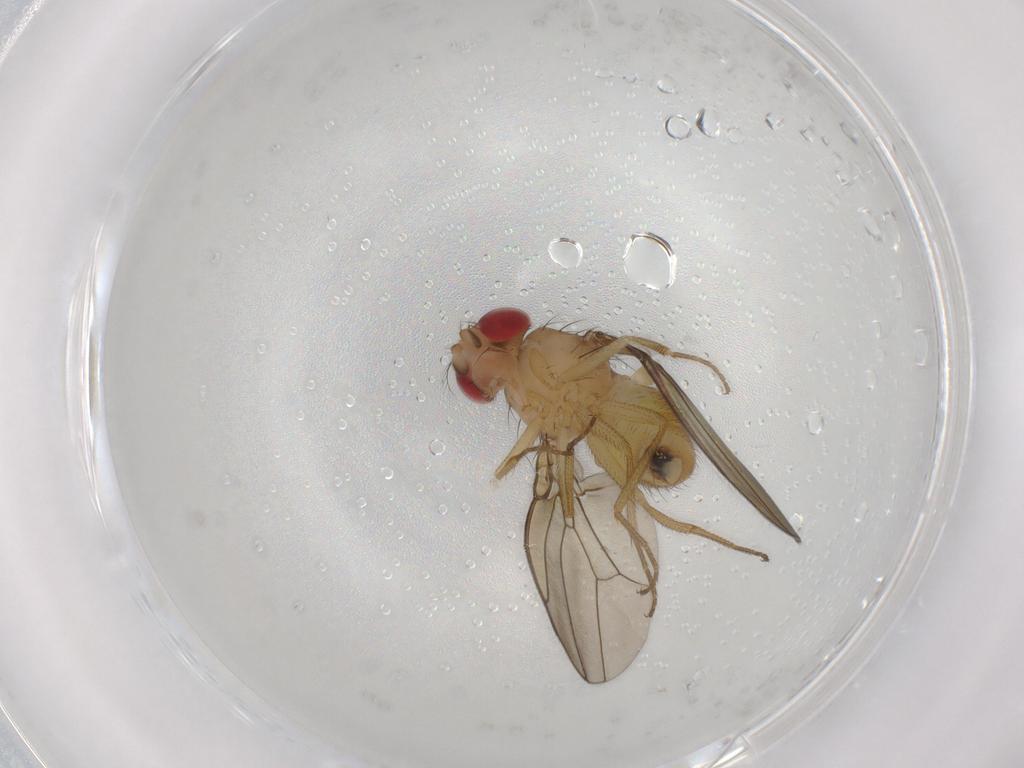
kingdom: Animalia
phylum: Arthropoda
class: Insecta
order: Diptera
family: Drosophilidae
